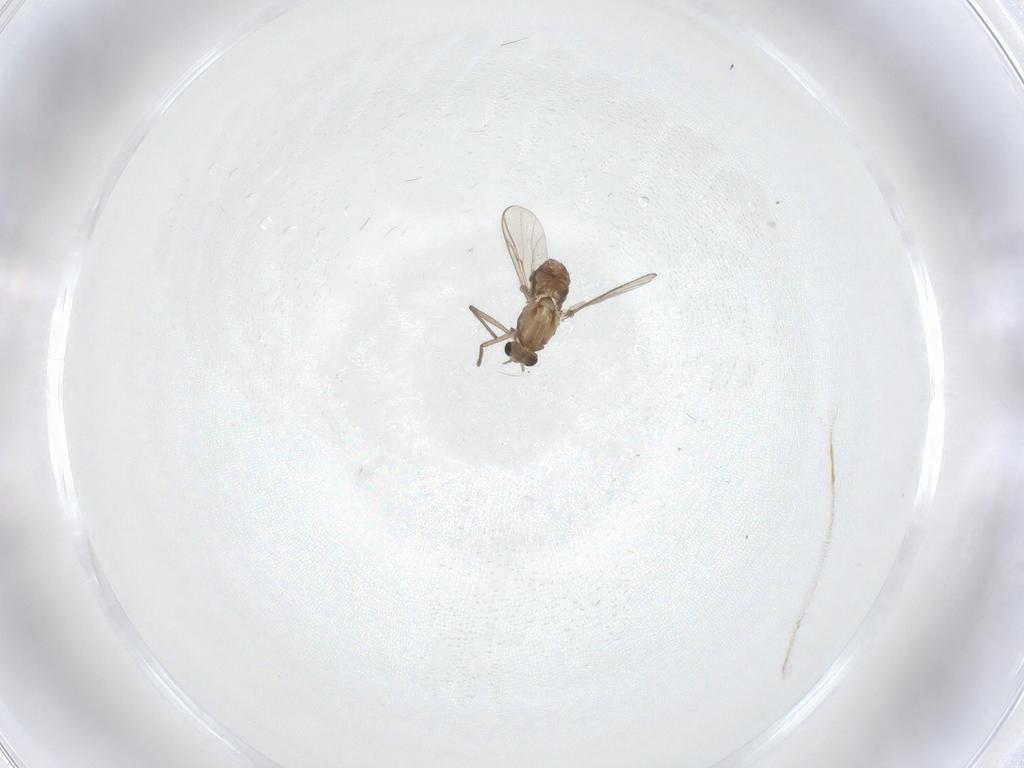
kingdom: Animalia
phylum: Arthropoda
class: Insecta
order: Diptera
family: Chironomidae
